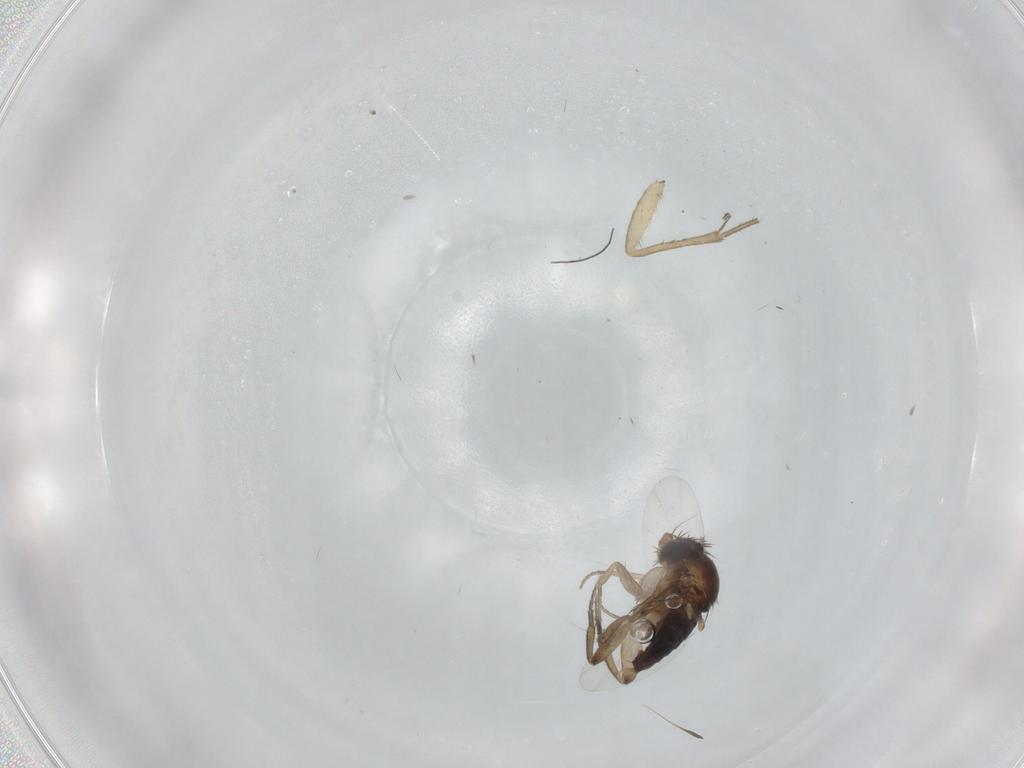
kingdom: Animalia
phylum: Arthropoda
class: Insecta
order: Diptera
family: Phoridae
